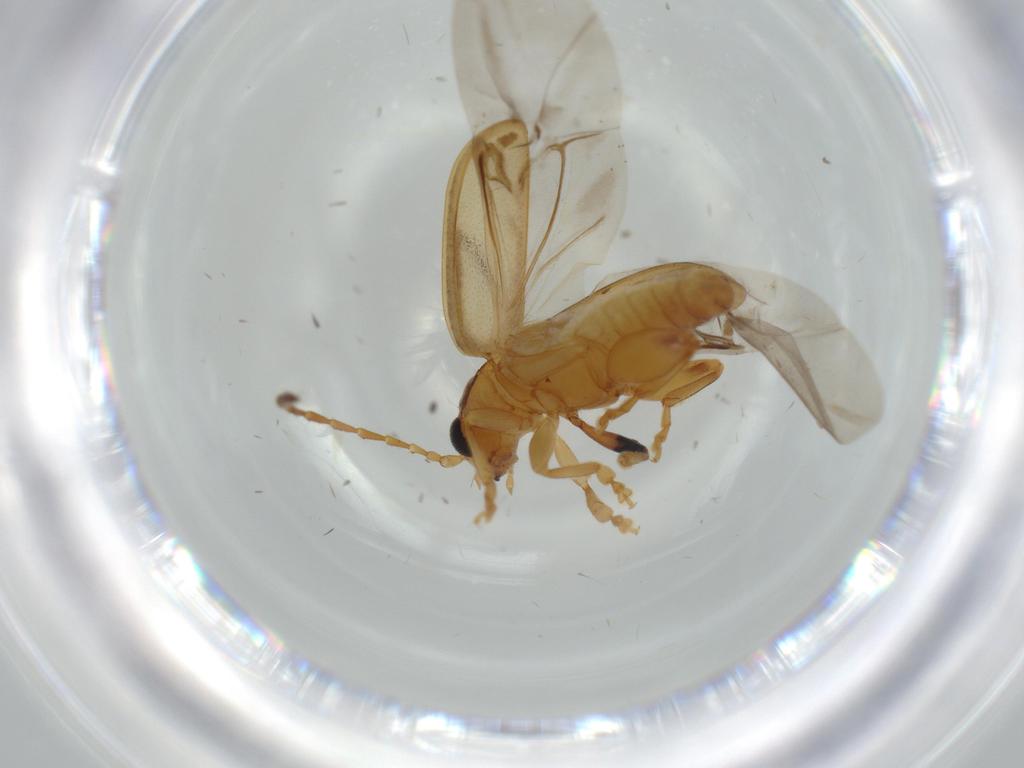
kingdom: Animalia
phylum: Arthropoda
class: Insecta
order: Coleoptera
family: Chrysomelidae
